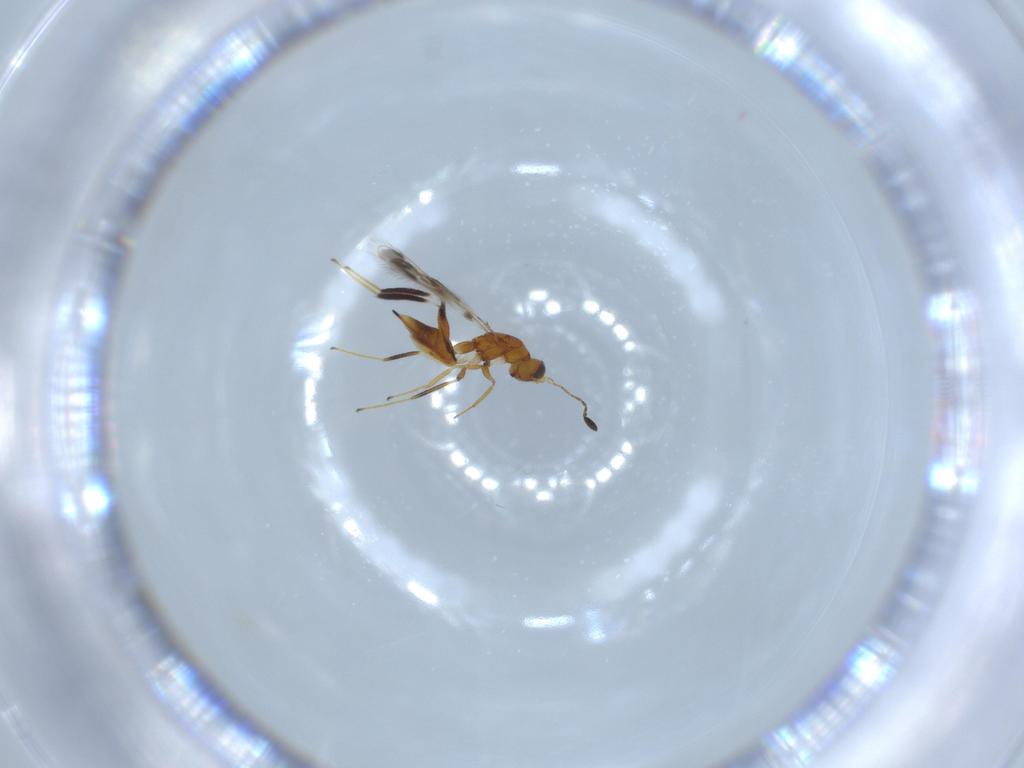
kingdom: Animalia
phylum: Arthropoda
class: Insecta
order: Hymenoptera
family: Mymaridae
